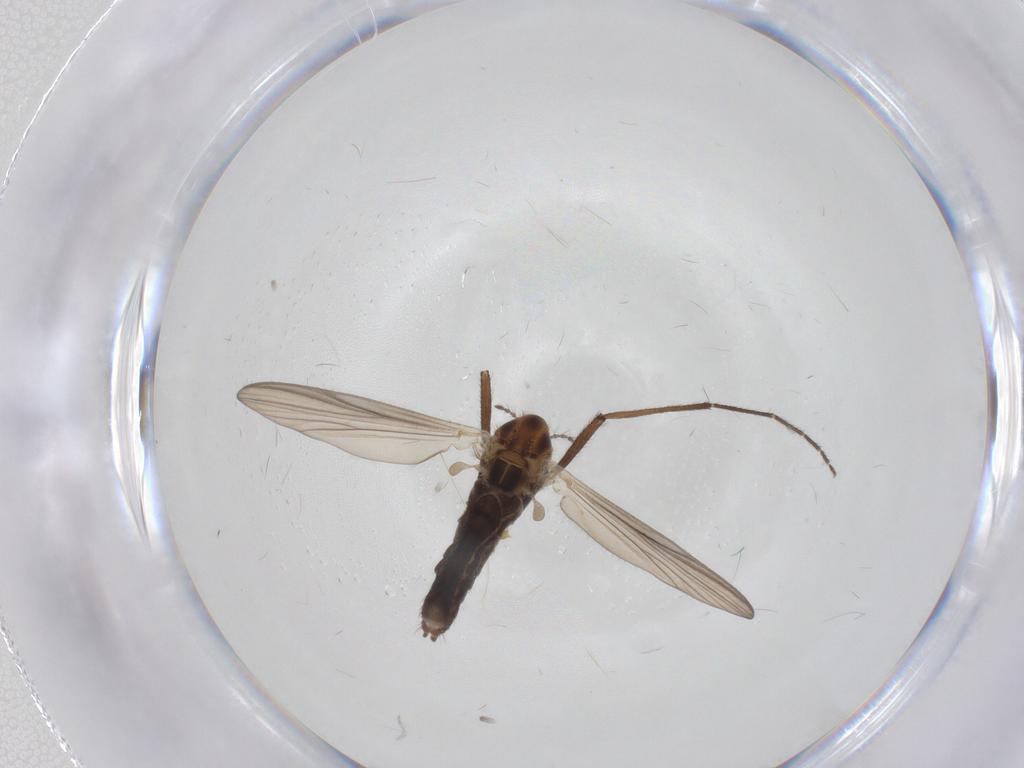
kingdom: Animalia
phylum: Arthropoda
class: Insecta
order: Diptera
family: Chironomidae
